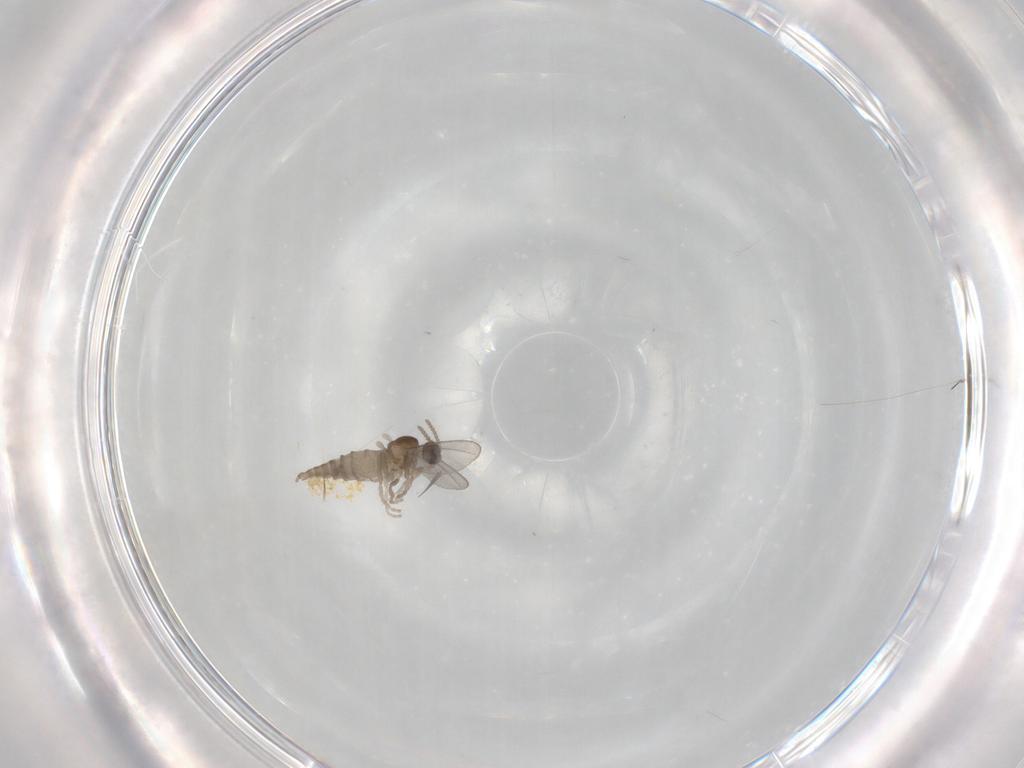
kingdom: Animalia
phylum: Arthropoda
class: Insecta
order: Diptera
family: Cecidomyiidae
